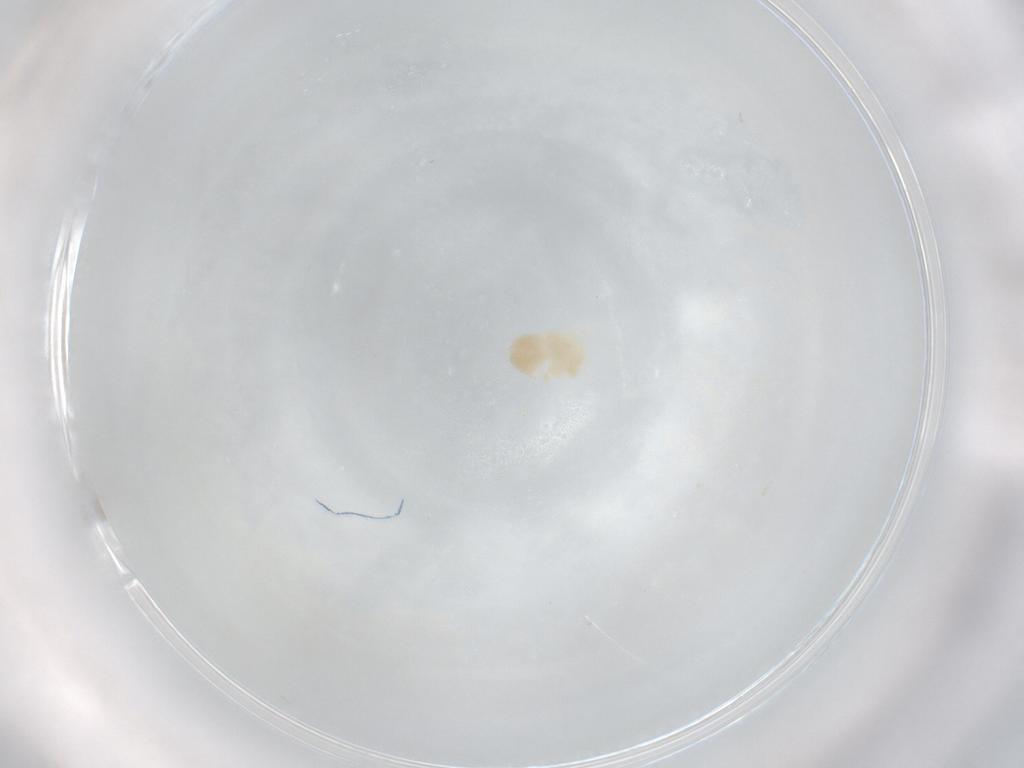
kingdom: Animalia
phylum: Arthropoda
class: Arachnida
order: Trombidiformes
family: Microtrombidiidae
